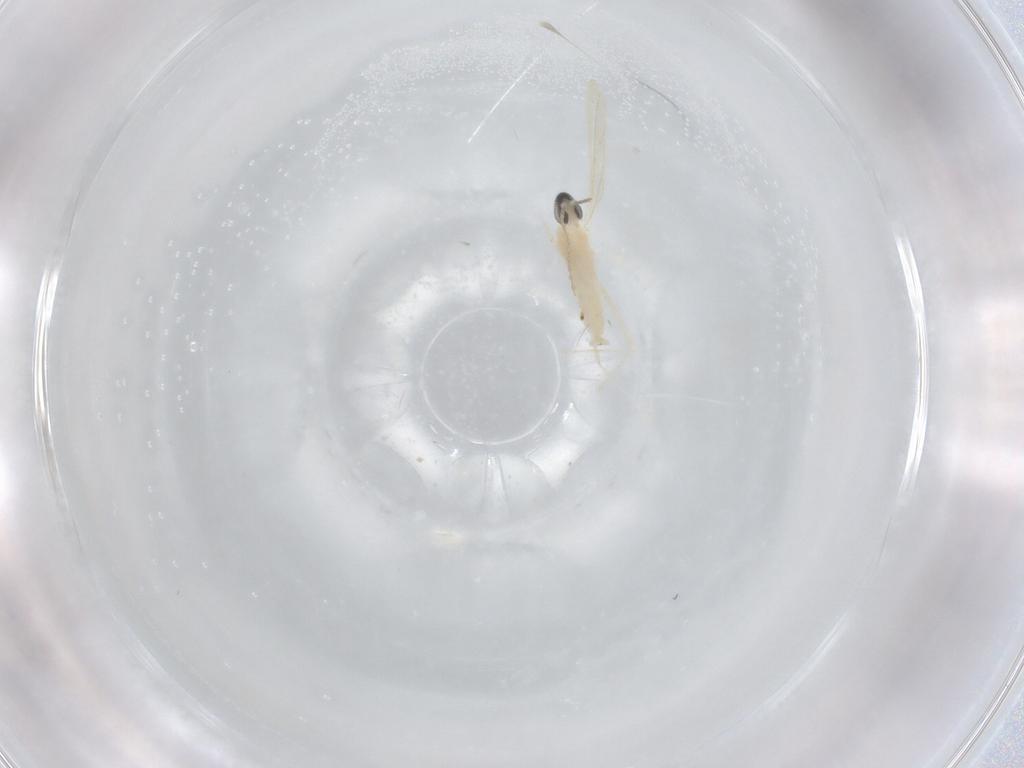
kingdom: Animalia
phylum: Arthropoda
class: Insecta
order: Diptera
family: Cecidomyiidae
